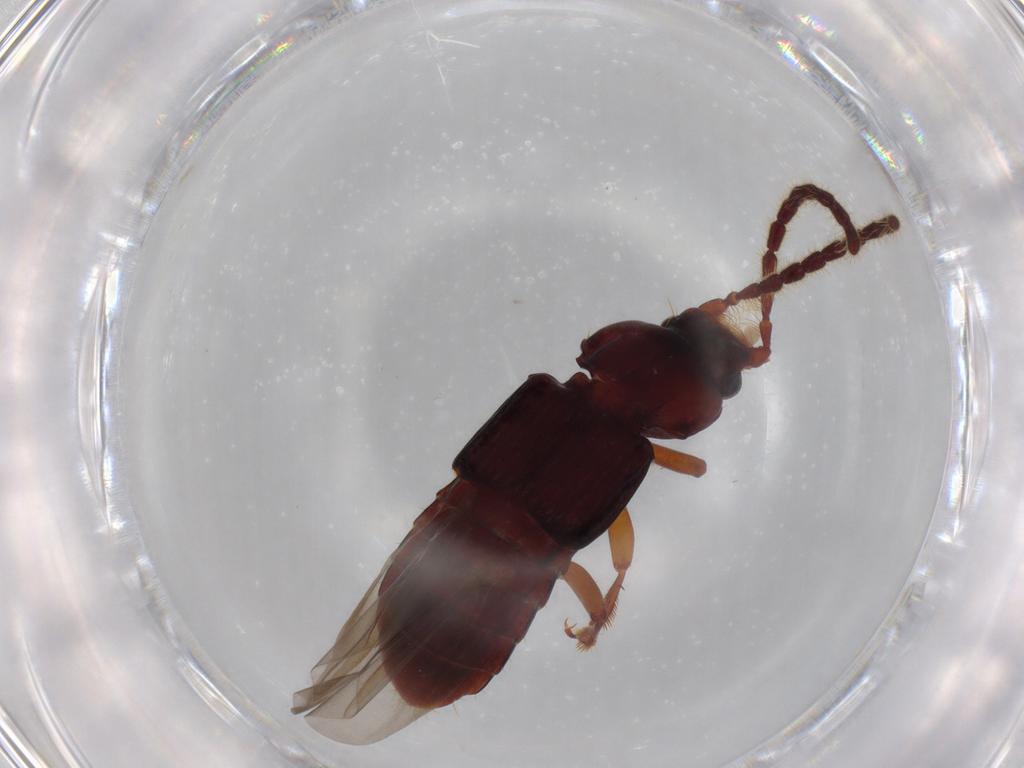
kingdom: Animalia
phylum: Arthropoda
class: Insecta
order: Coleoptera
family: Staphylinidae
